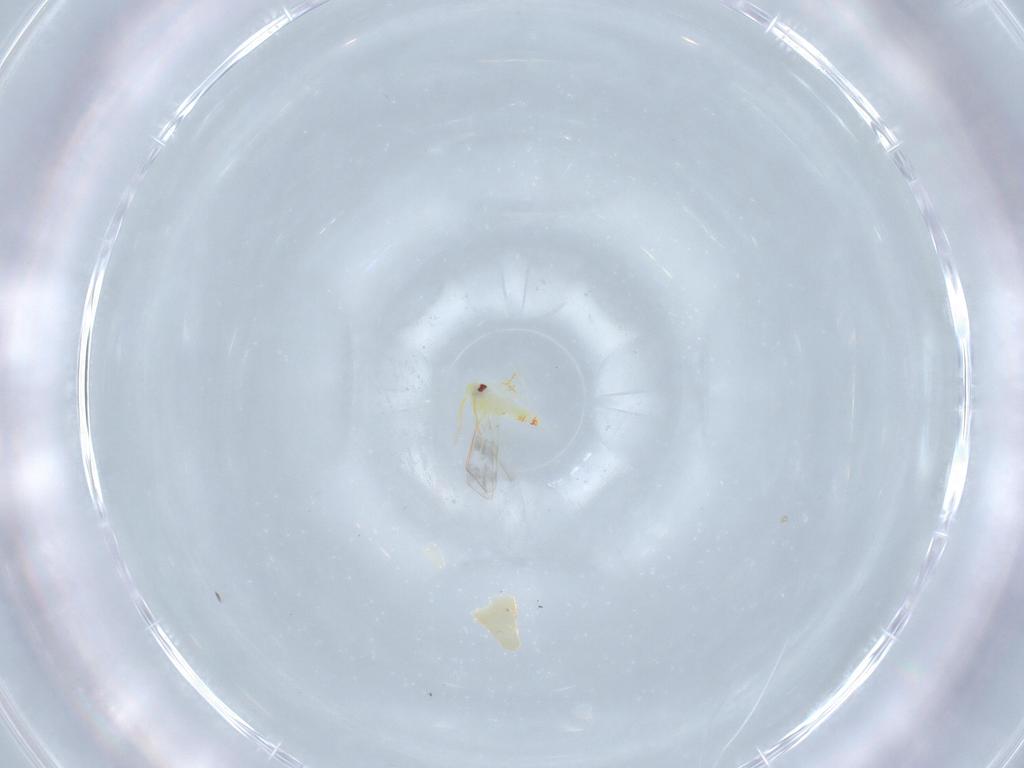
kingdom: Animalia
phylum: Arthropoda
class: Insecta
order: Hemiptera
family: Aleyrodidae
